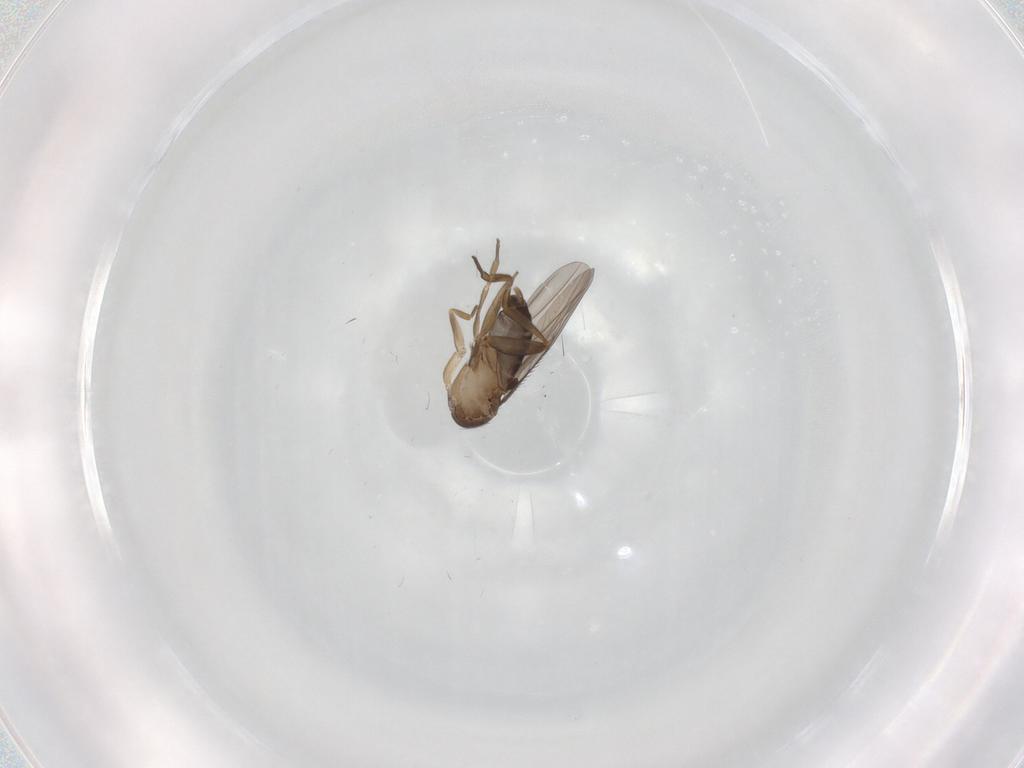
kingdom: Animalia
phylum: Arthropoda
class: Insecta
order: Diptera
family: Phoridae
